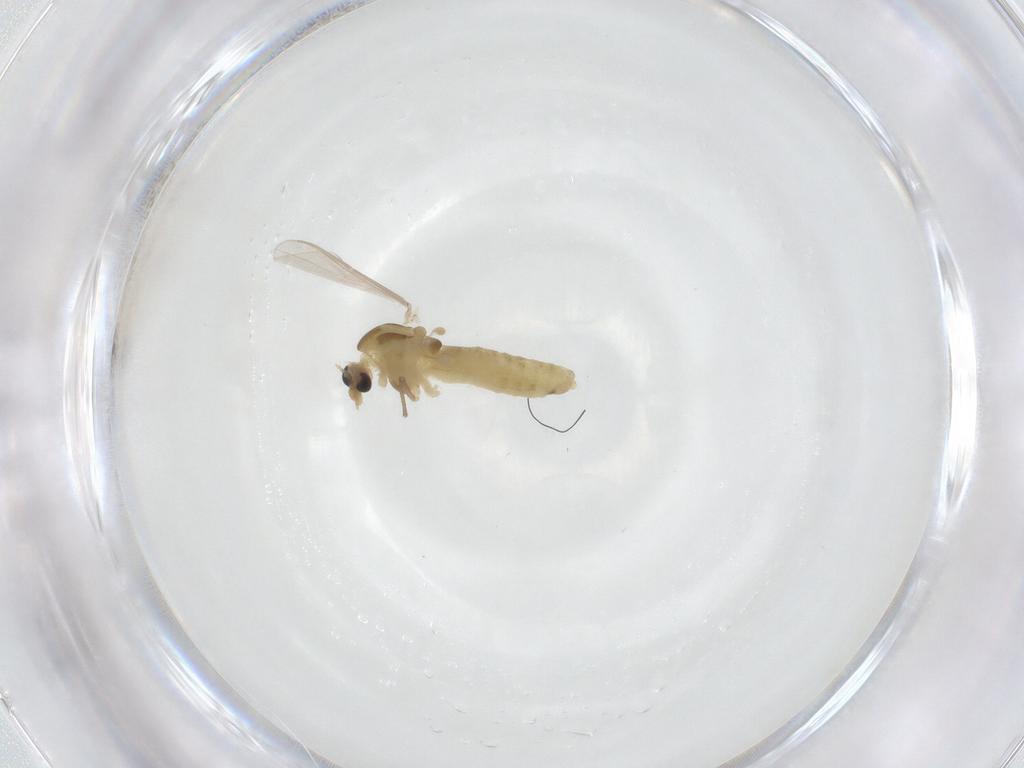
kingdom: Animalia
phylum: Arthropoda
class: Insecta
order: Diptera
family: Chironomidae
